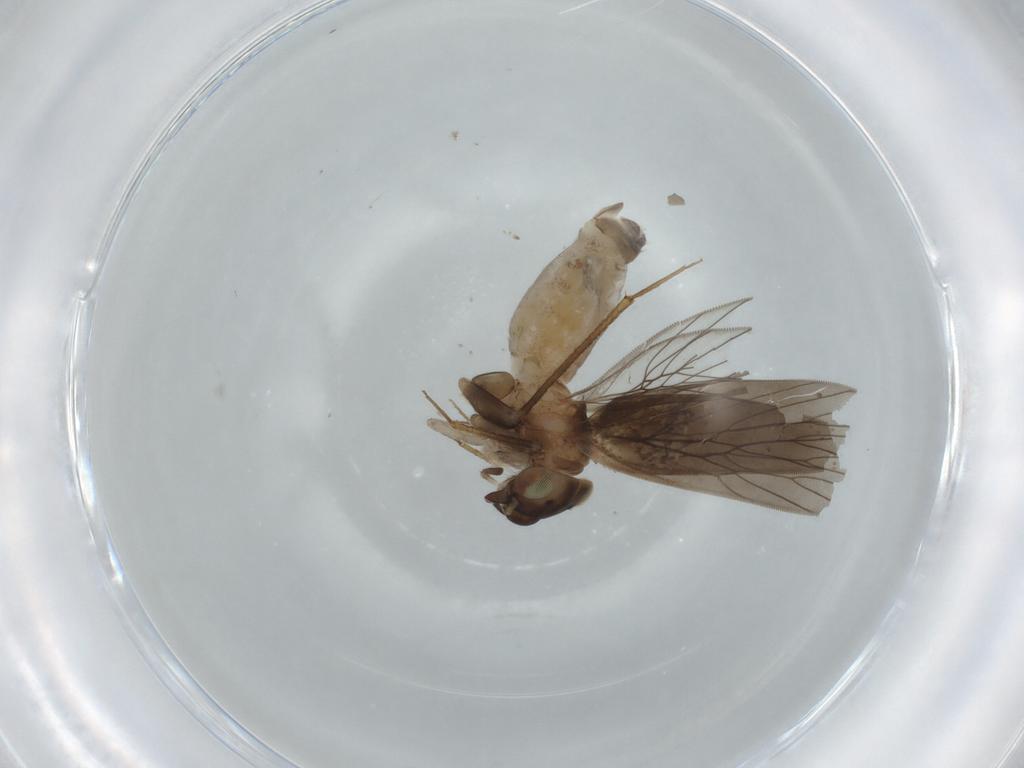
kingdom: Animalia
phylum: Arthropoda
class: Insecta
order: Psocodea
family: Lepidopsocidae
